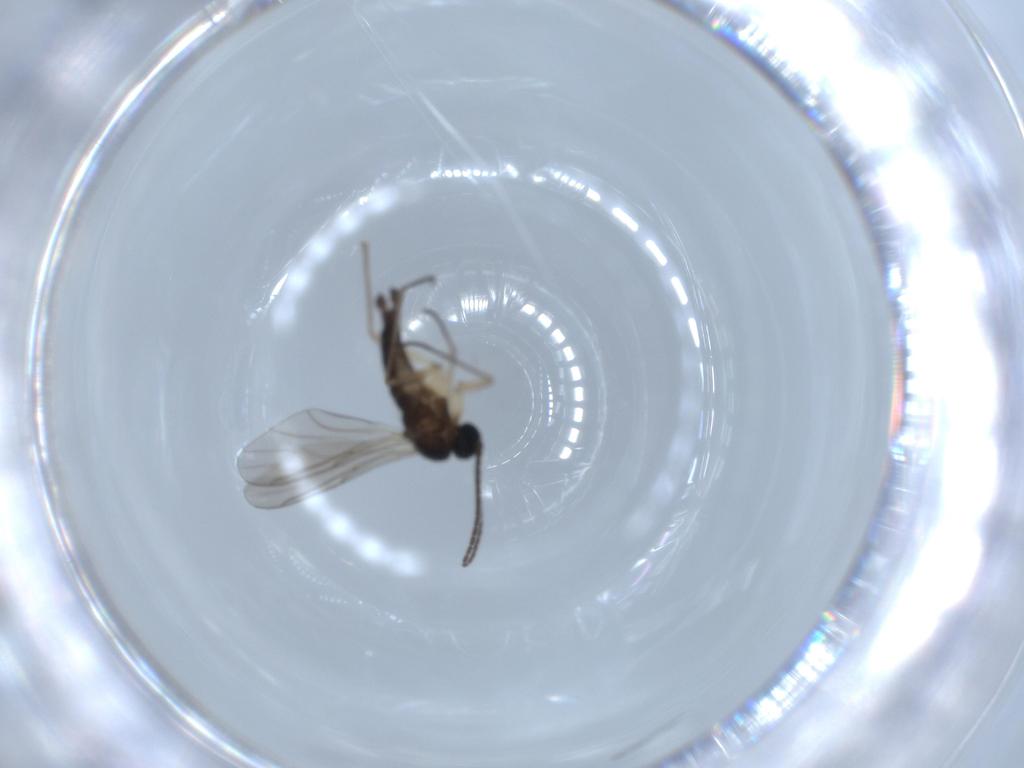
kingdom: Animalia
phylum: Arthropoda
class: Insecta
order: Diptera
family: Sciaridae
